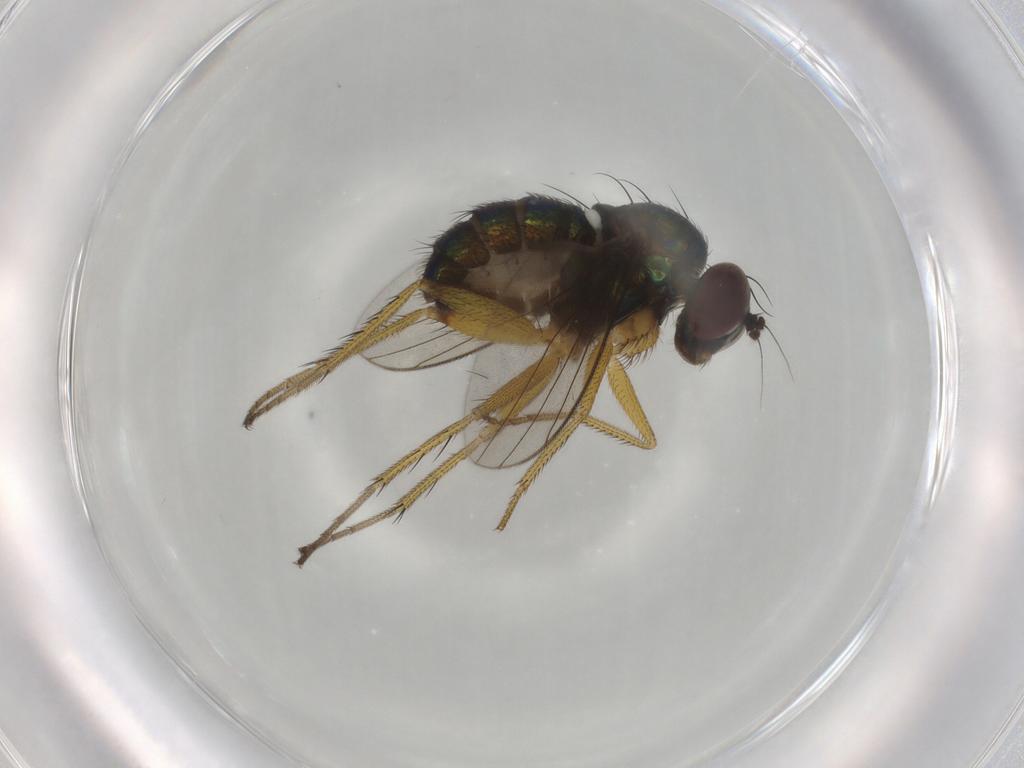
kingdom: Animalia
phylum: Arthropoda
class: Insecta
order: Diptera
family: Dolichopodidae
